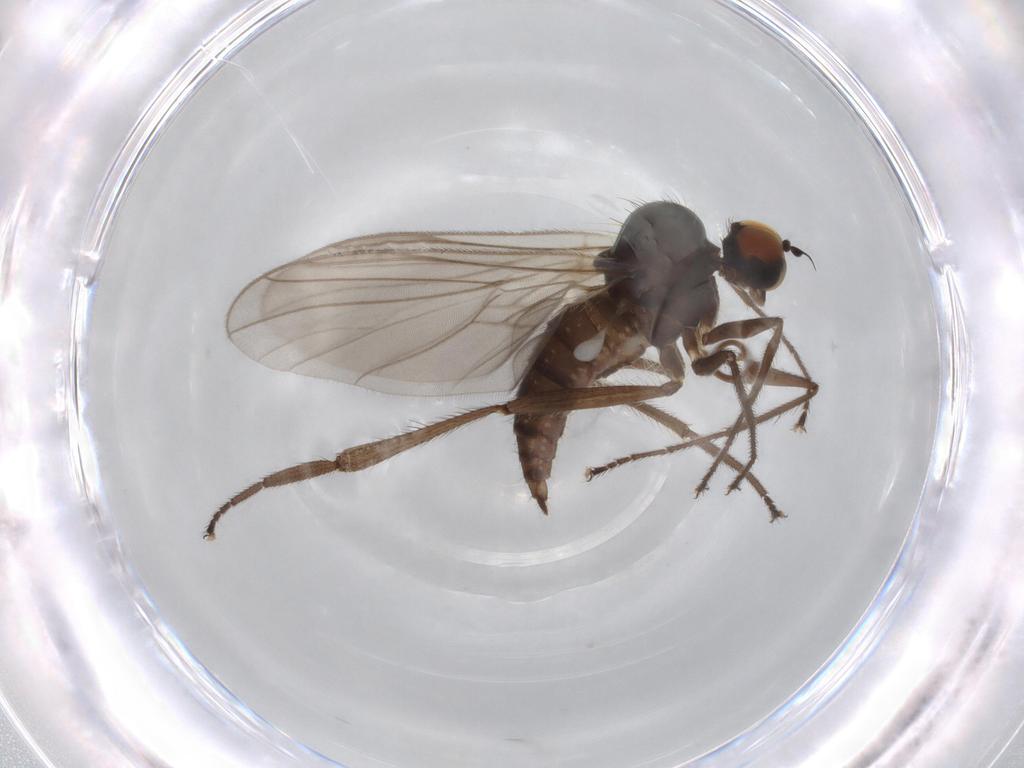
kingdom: Animalia
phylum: Arthropoda
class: Insecta
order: Diptera
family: Hybotidae
